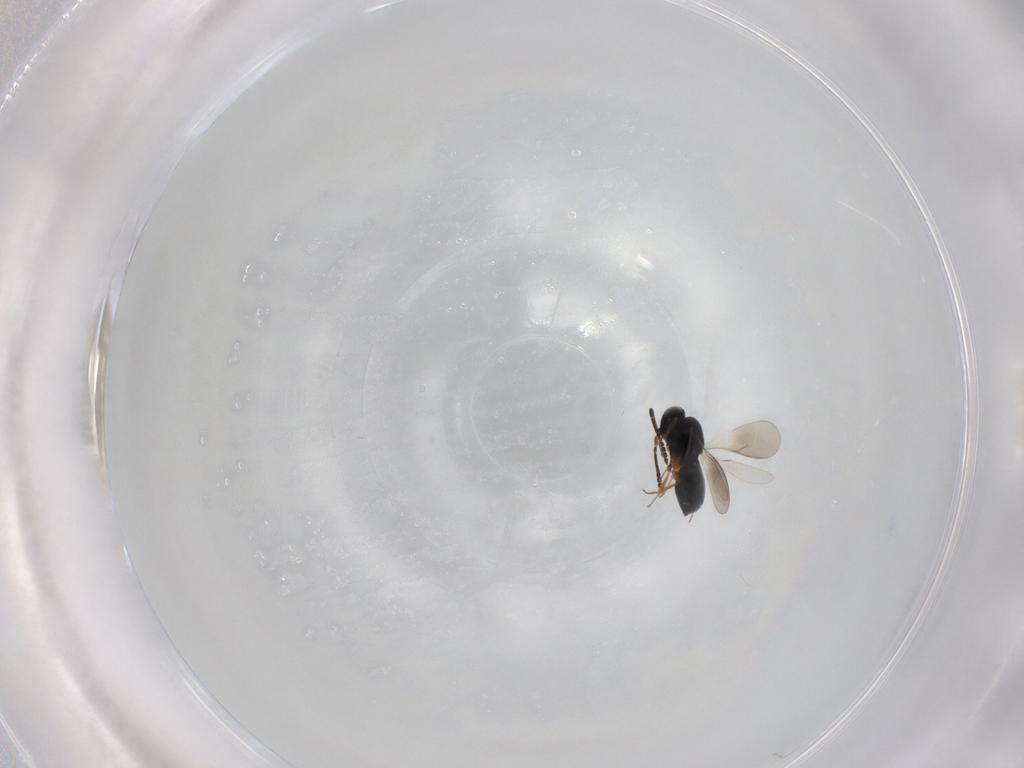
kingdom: Animalia
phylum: Arthropoda
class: Insecta
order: Hymenoptera
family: Scelionidae
